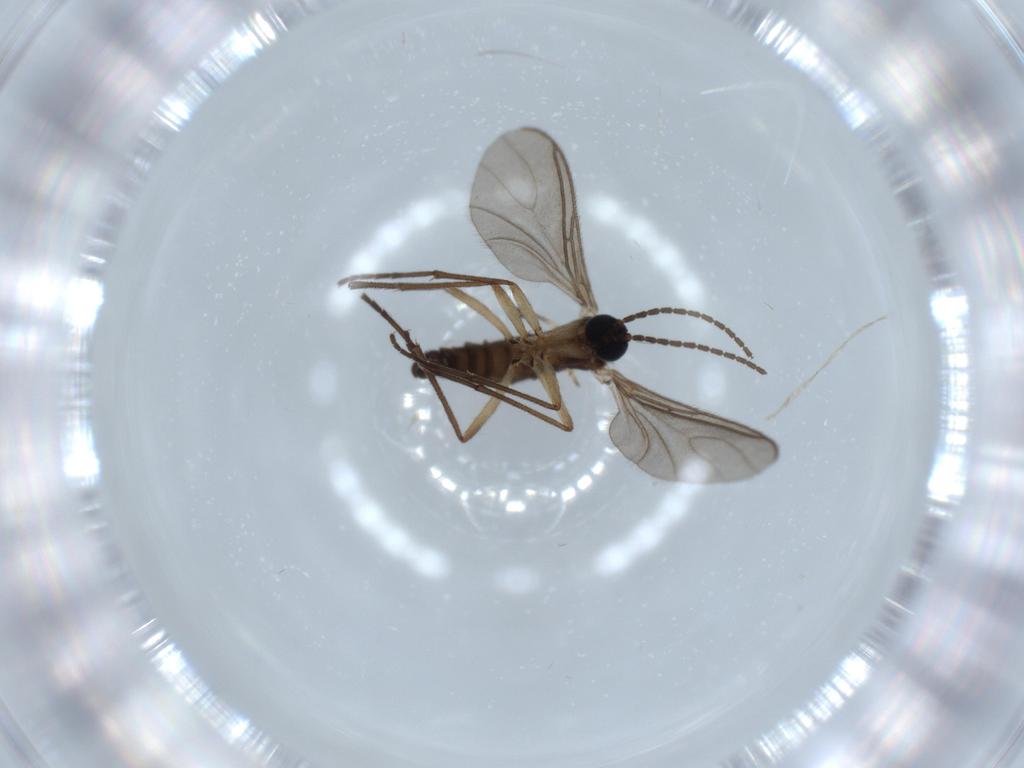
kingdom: Animalia
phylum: Arthropoda
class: Insecta
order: Diptera
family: Sciaridae
